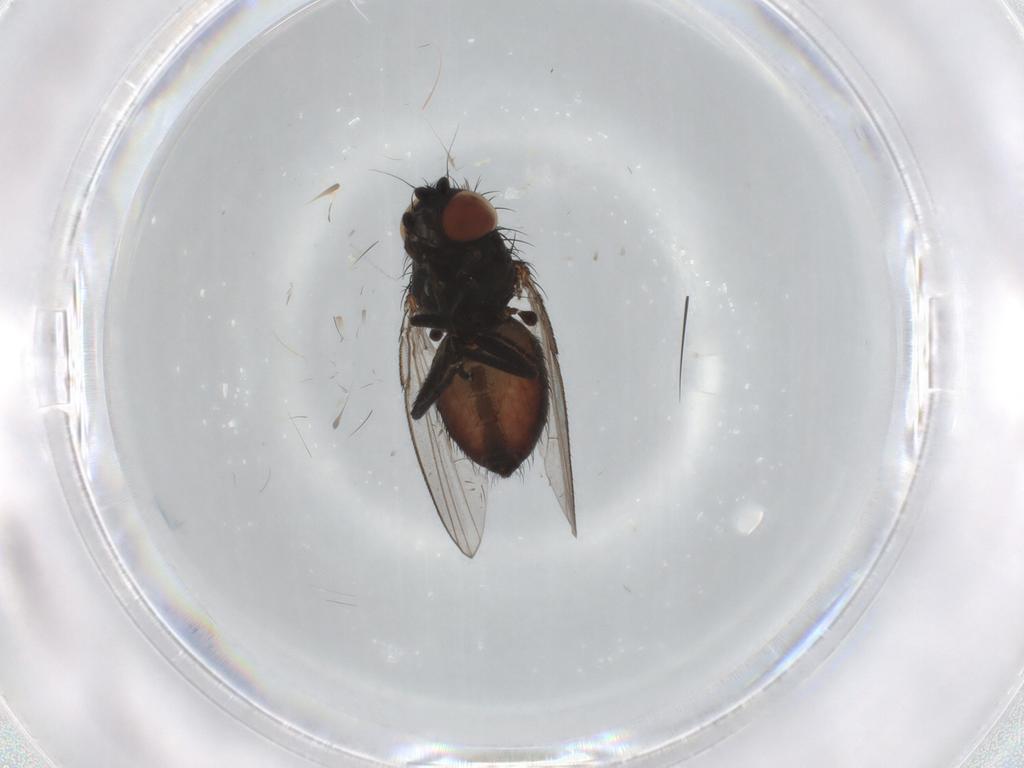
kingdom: Animalia
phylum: Arthropoda
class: Insecta
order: Diptera
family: Milichiidae
